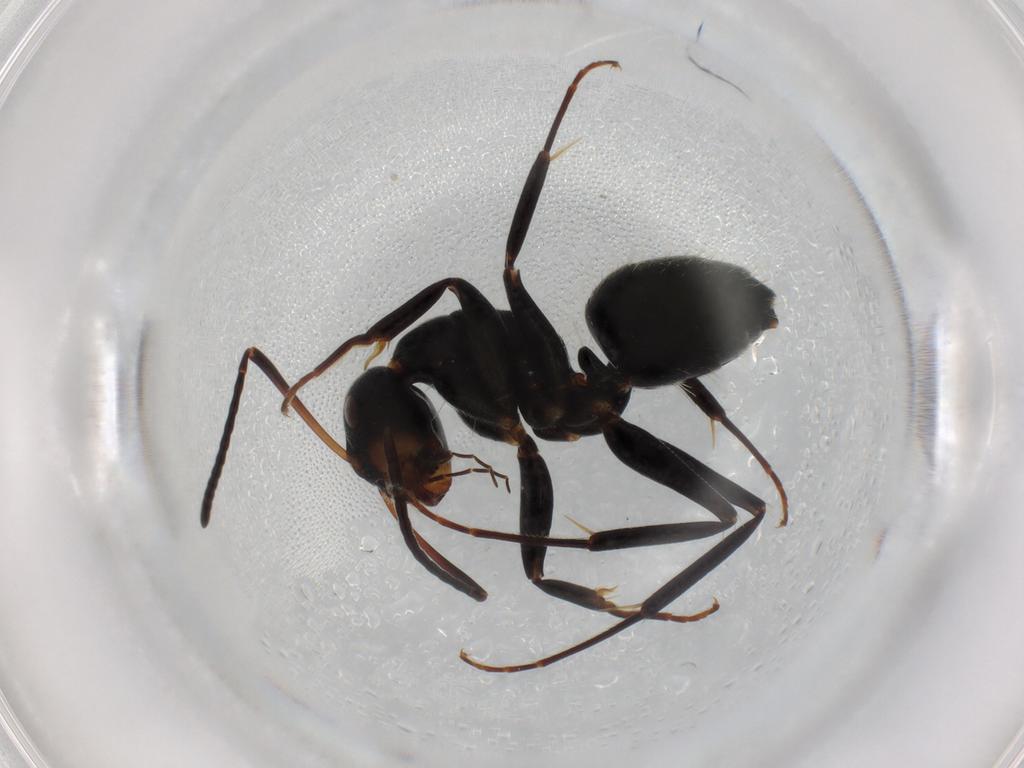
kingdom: Animalia
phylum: Arthropoda
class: Insecta
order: Hymenoptera
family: Formicidae
